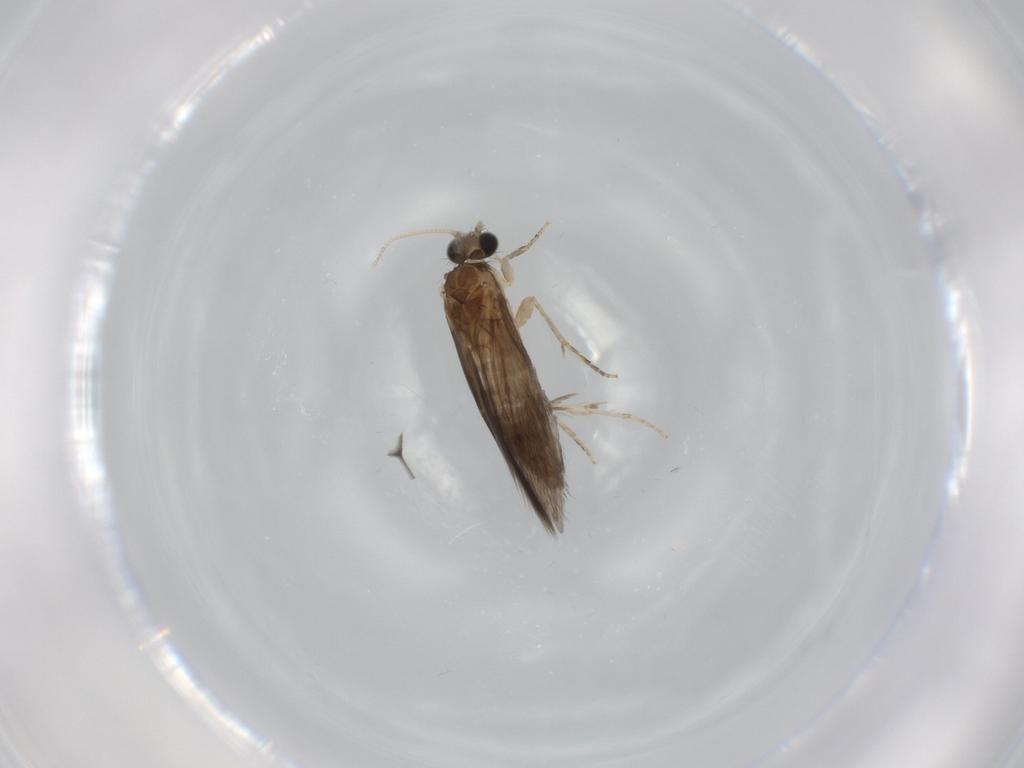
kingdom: Animalia
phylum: Arthropoda
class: Insecta
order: Trichoptera
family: Hydroptilidae
